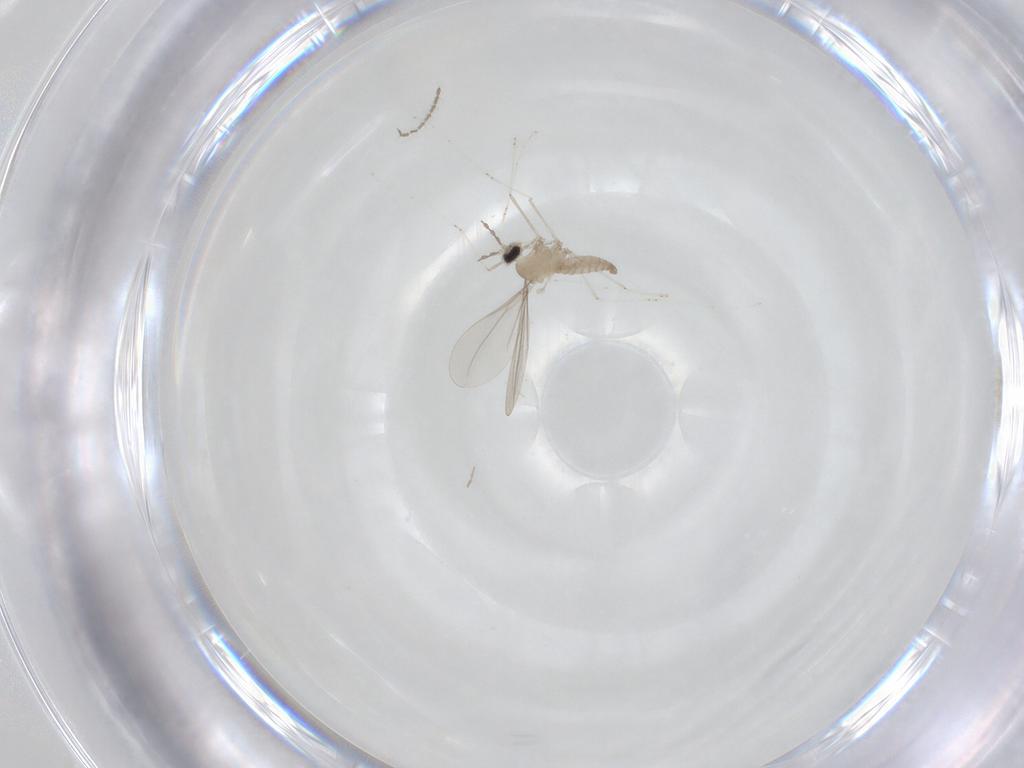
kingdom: Animalia
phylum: Arthropoda
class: Insecta
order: Diptera
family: Cecidomyiidae
